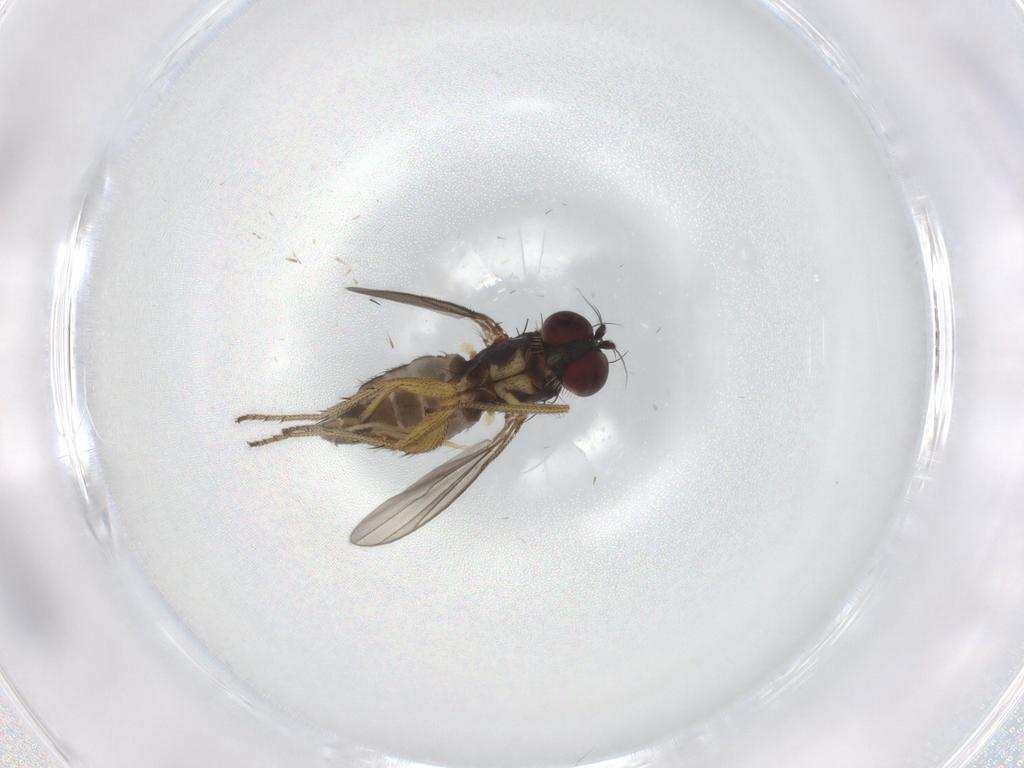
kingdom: Animalia
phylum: Arthropoda
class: Insecta
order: Diptera
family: Dolichopodidae
